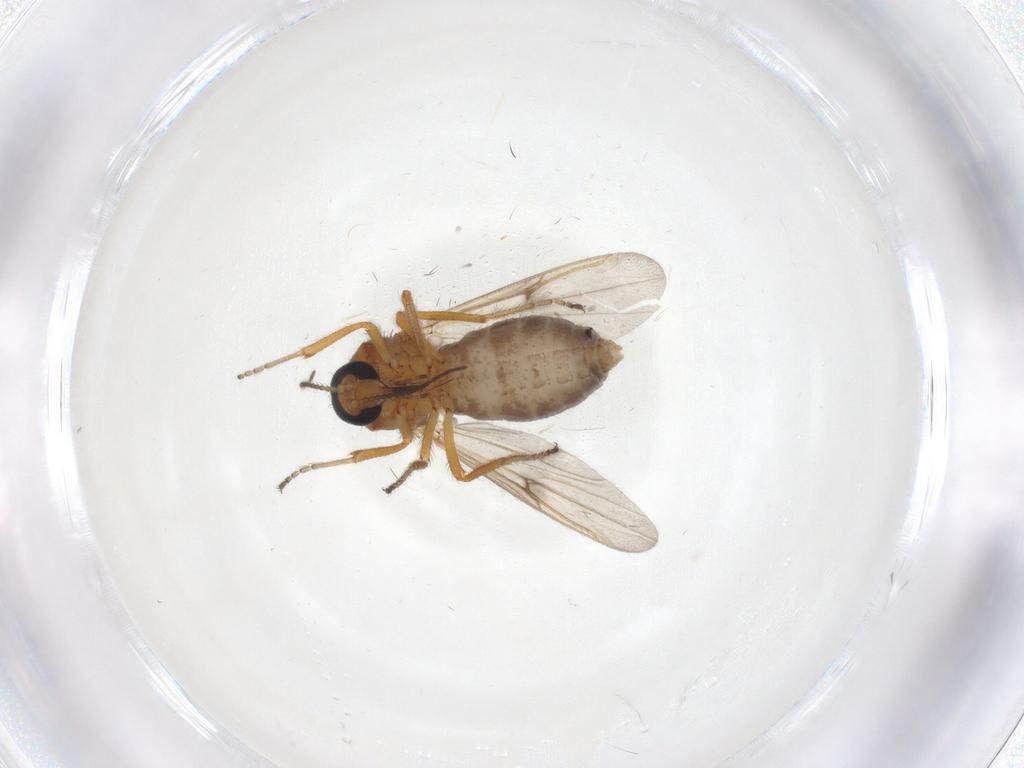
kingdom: Animalia
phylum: Arthropoda
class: Insecta
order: Diptera
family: Ceratopogonidae
